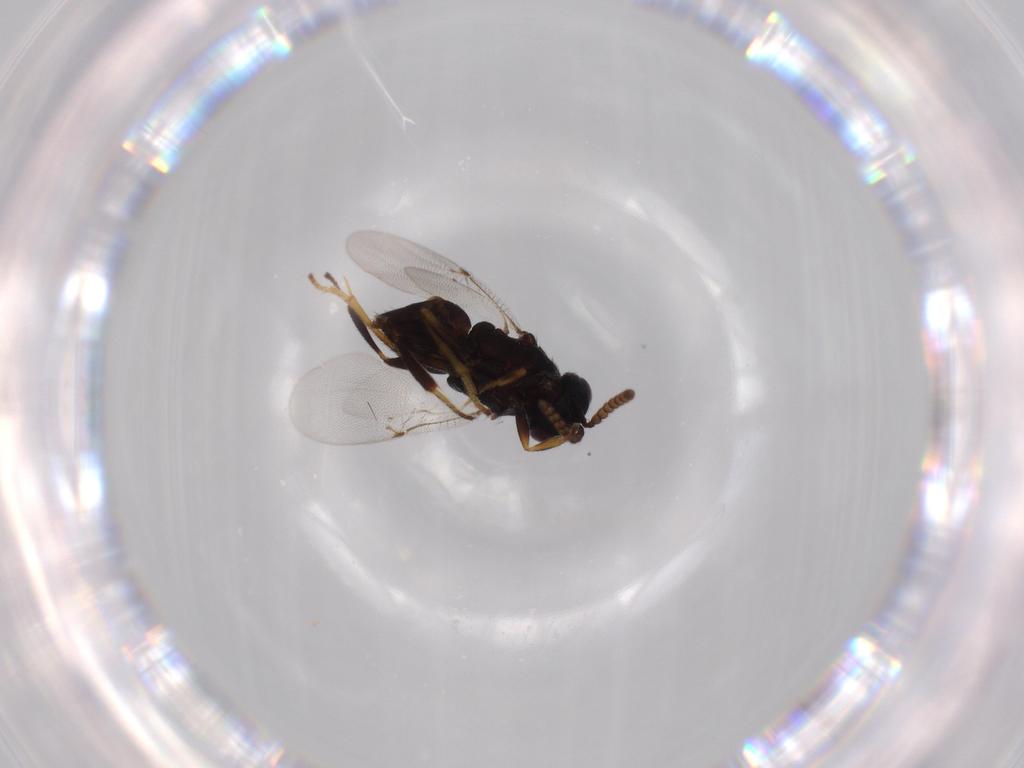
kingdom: Animalia
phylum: Arthropoda
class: Insecta
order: Hymenoptera
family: Encyrtidae
